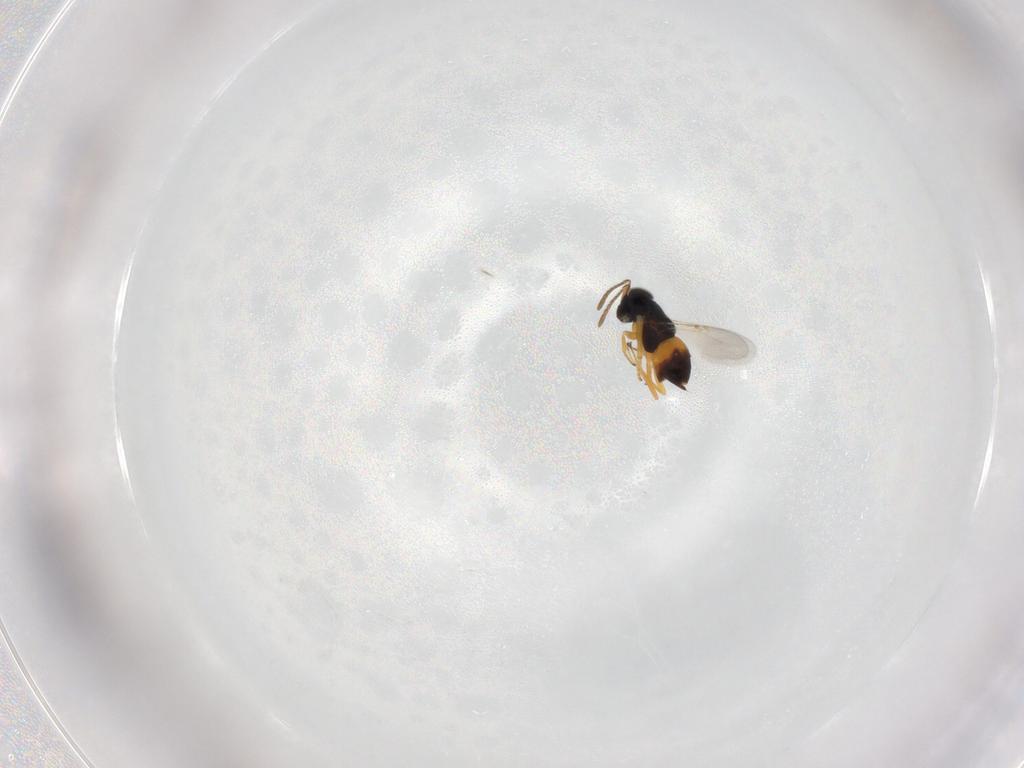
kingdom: Animalia
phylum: Arthropoda
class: Insecta
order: Hymenoptera
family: Encyrtidae
